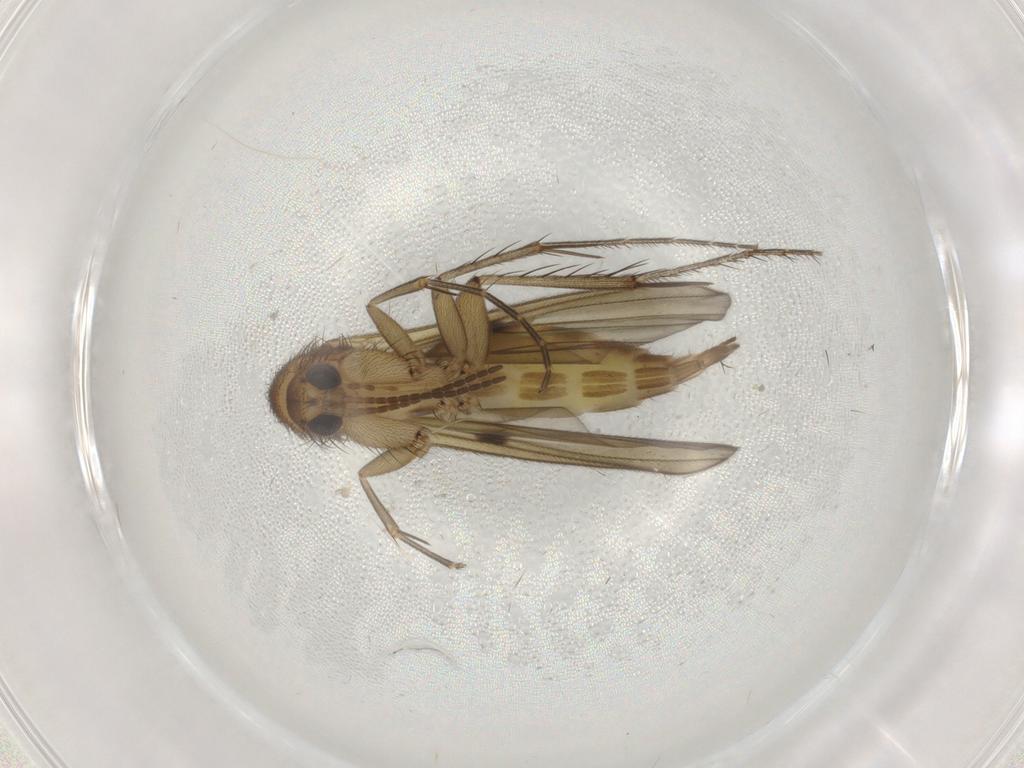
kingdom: Animalia
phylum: Arthropoda
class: Insecta
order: Diptera
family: Mycetophilidae
